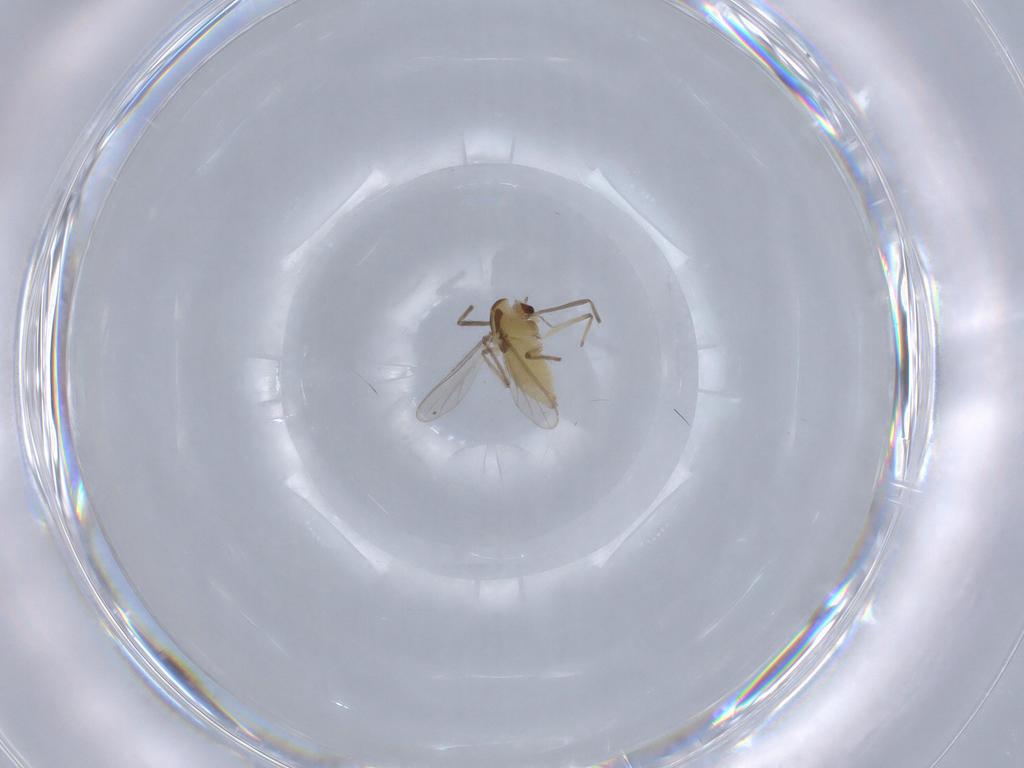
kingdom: Animalia
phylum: Arthropoda
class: Insecta
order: Diptera
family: Chironomidae
